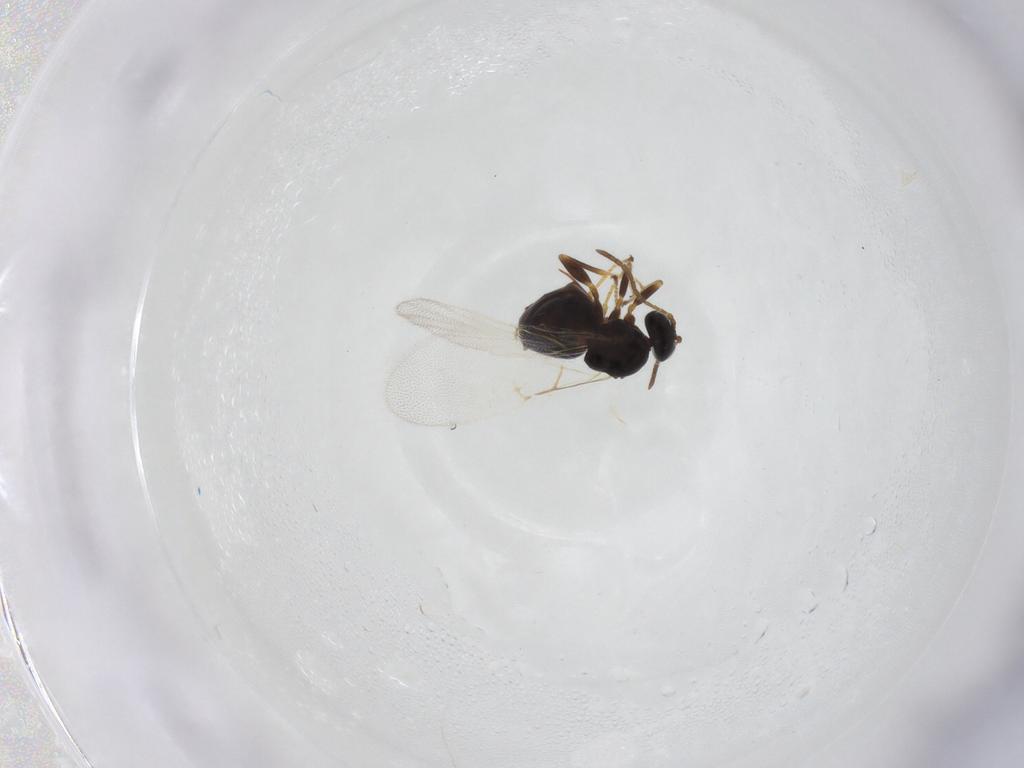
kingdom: Animalia
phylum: Arthropoda
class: Insecta
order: Hymenoptera
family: Cynipidae
